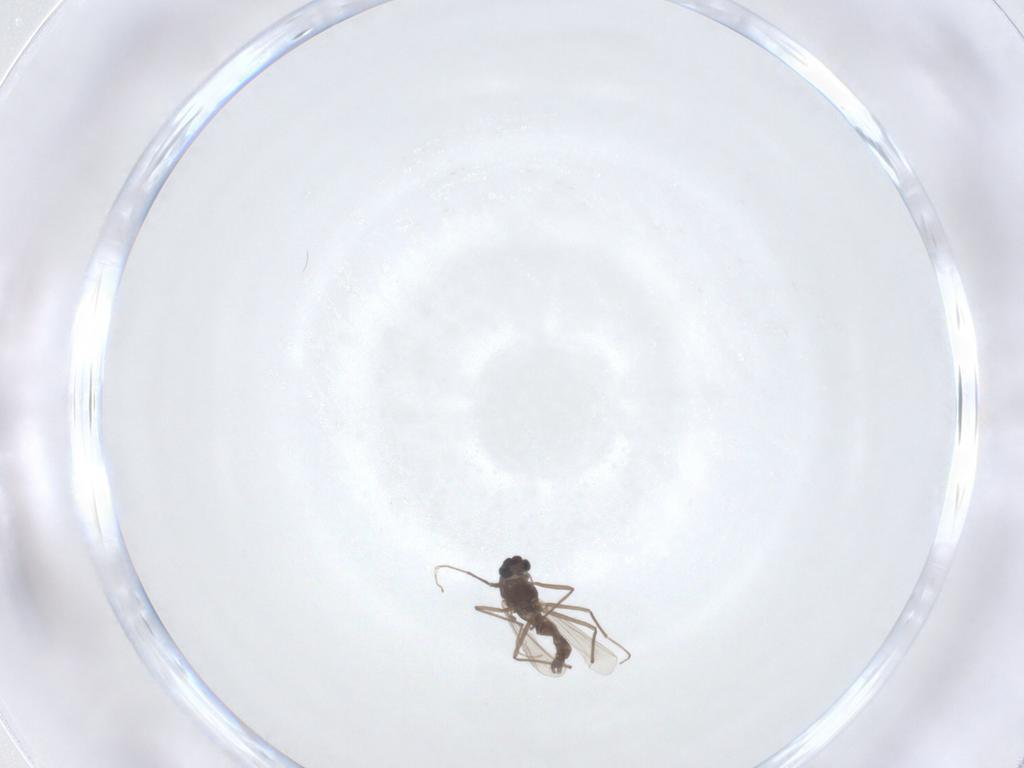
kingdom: Animalia
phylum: Arthropoda
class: Insecta
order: Diptera
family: Chironomidae
